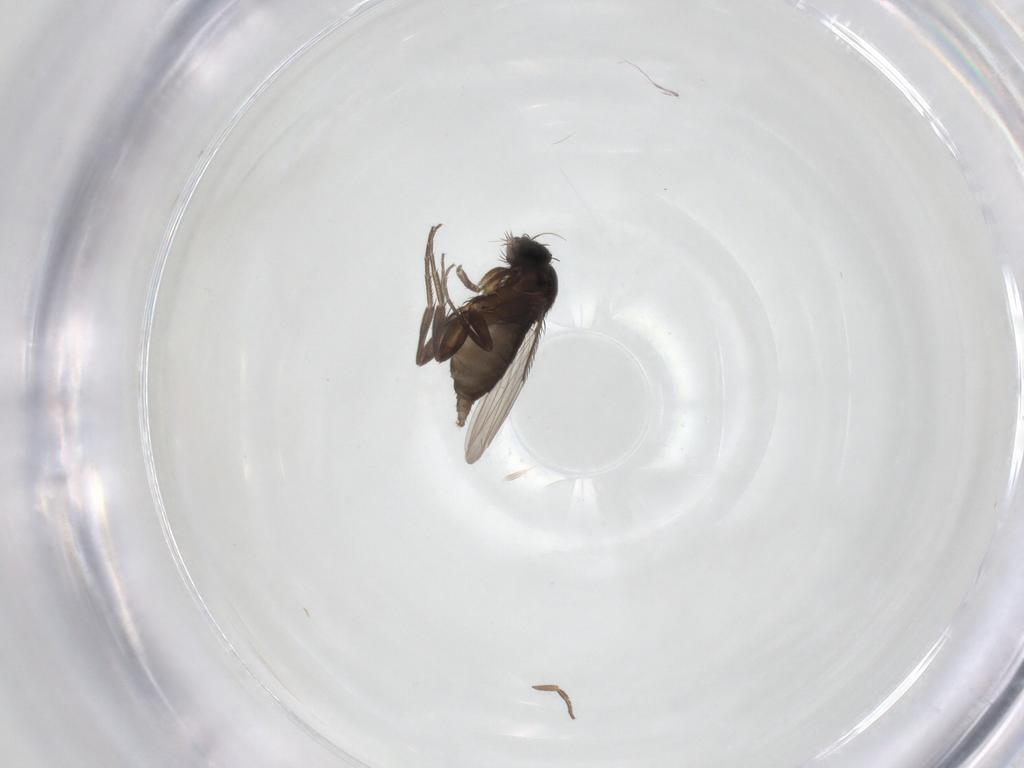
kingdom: Animalia
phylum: Arthropoda
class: Insecta
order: Diptera
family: Phoridae
